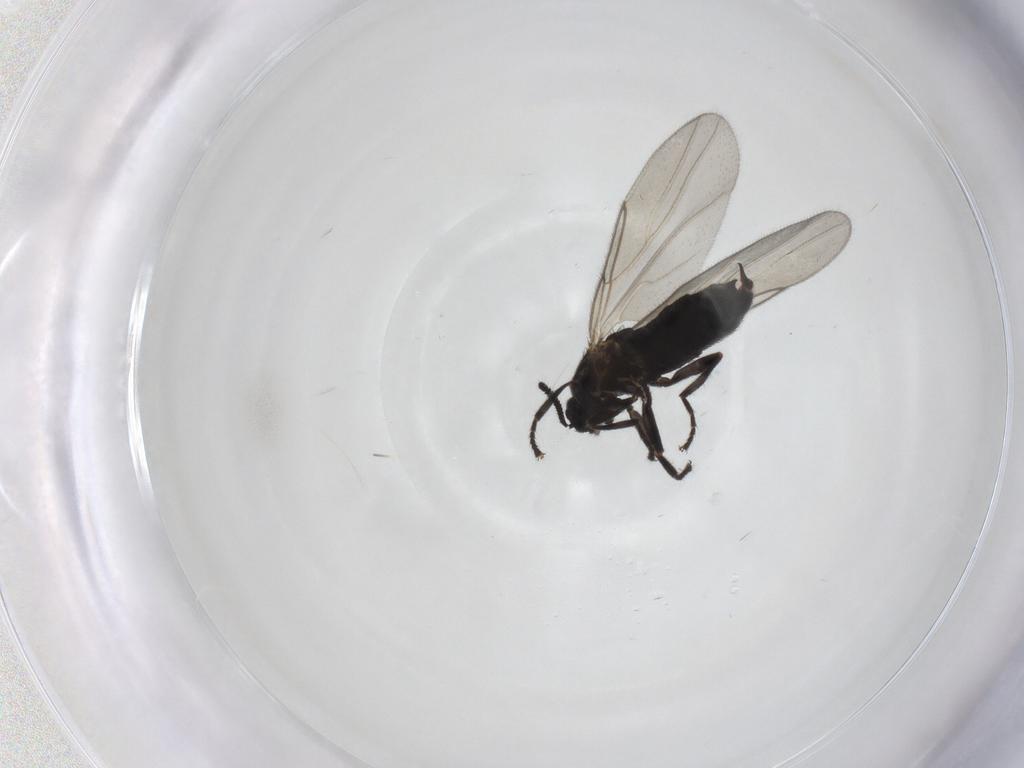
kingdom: Animalia
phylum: Arthropoda
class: Insecta
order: Diptera
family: Scatopsidae
